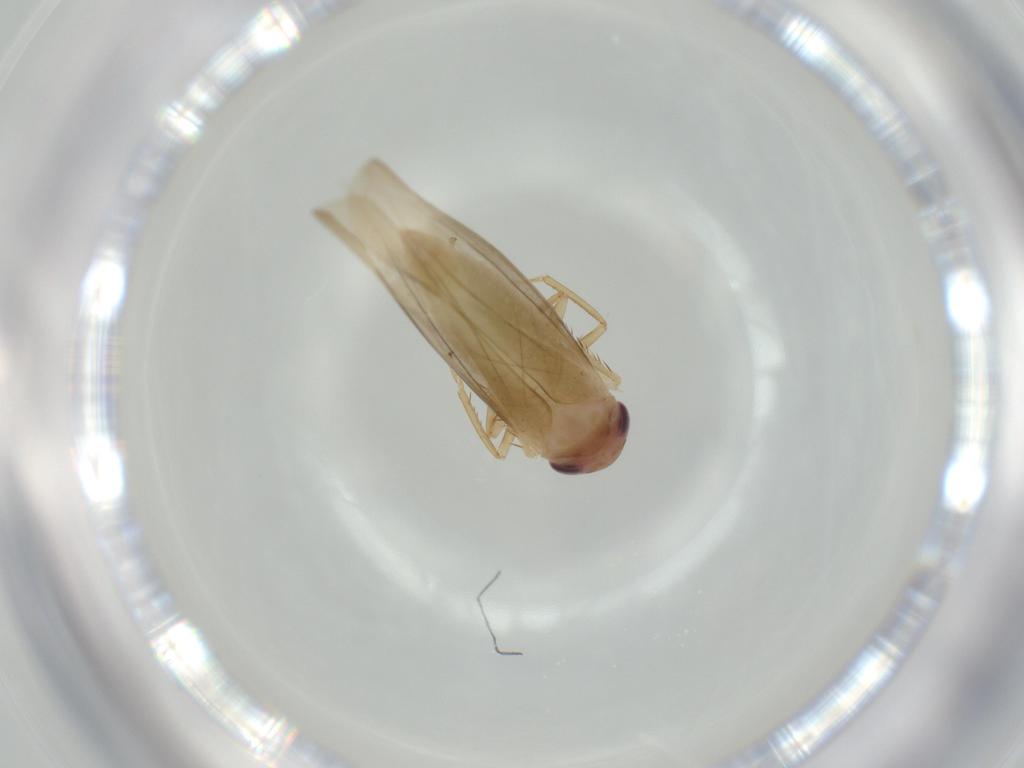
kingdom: Animalia
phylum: Arthropoda
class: Insecta
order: Hemiptera
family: Cicadellidae
